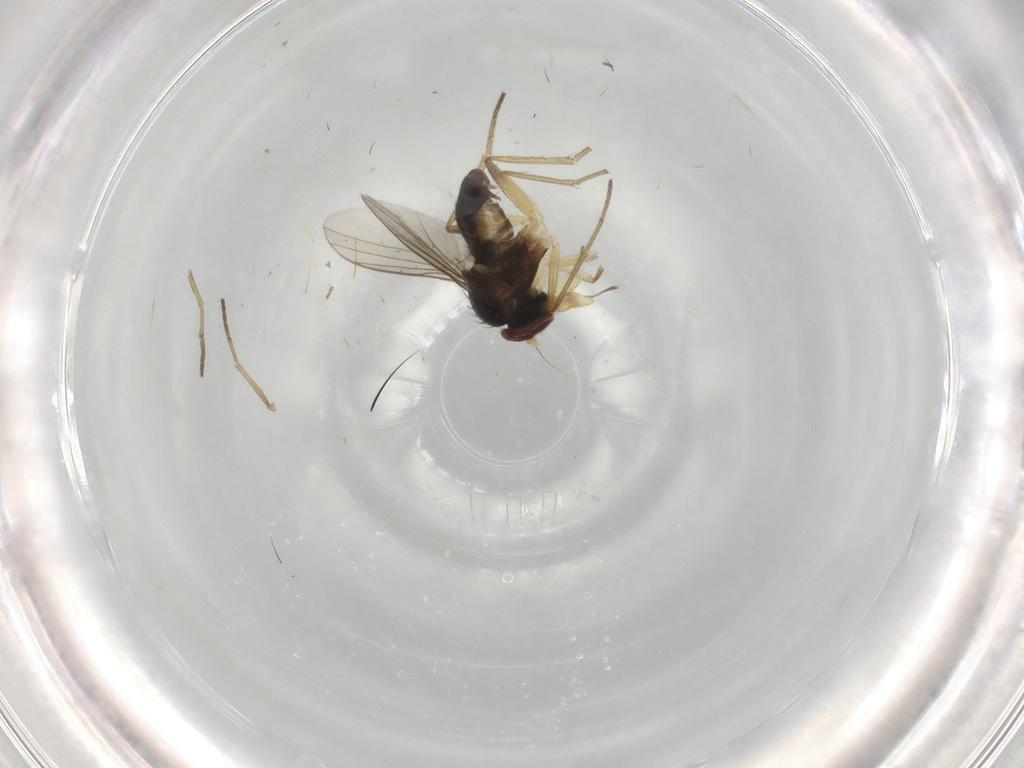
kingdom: Animalia
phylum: Arthropoda
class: Insecta
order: Diptera
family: Dolichopodidae
